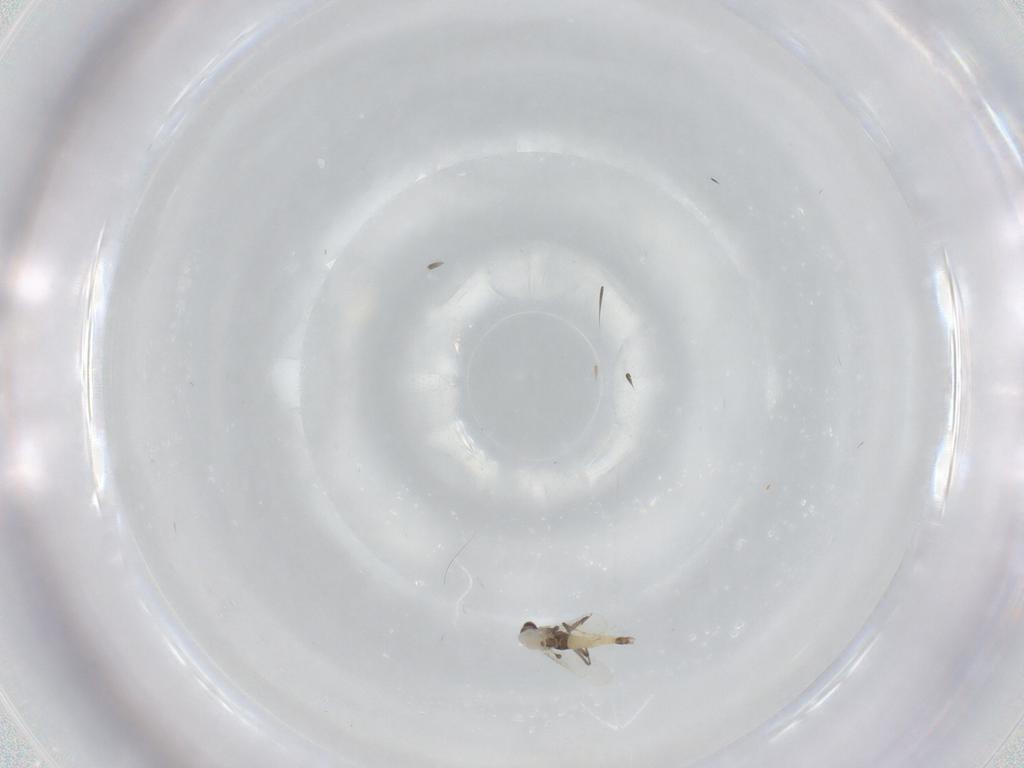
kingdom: Animalia
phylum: Arthropoda
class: Insecta
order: Diptera
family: Chironomidae
